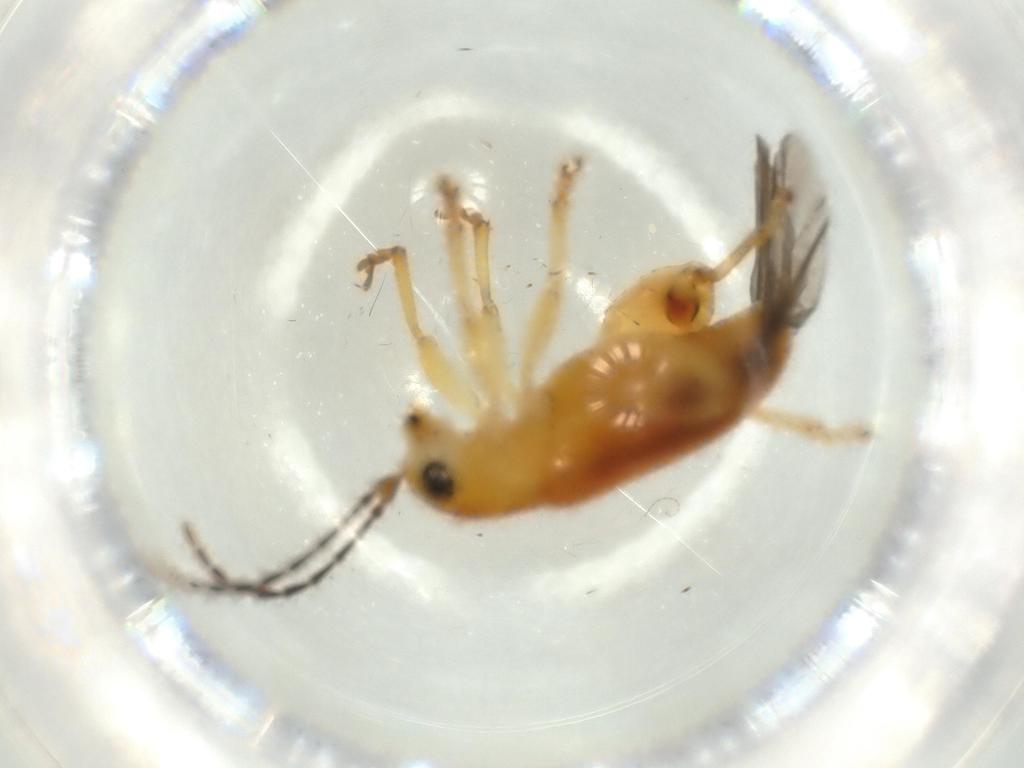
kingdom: Animalia
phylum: Arthropoda
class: Insecta
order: Coleoptera
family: Chrysomelidae
